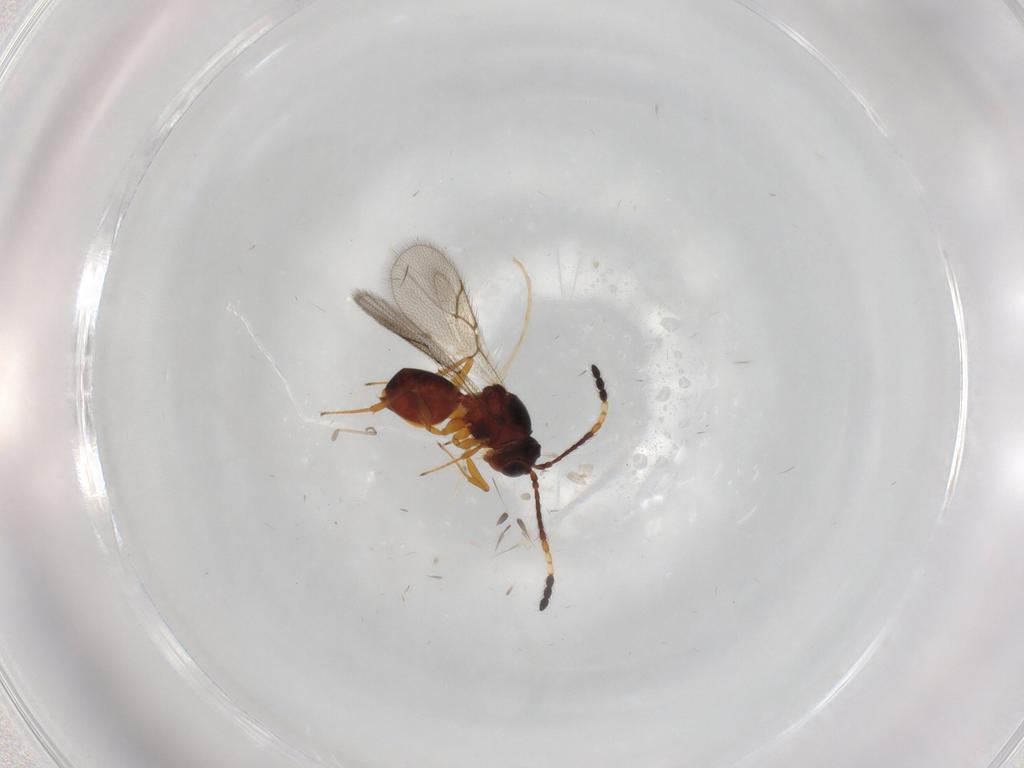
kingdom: Animalia
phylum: Arthropoda
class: Insecta
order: Hymenoptera
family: Figitidae
